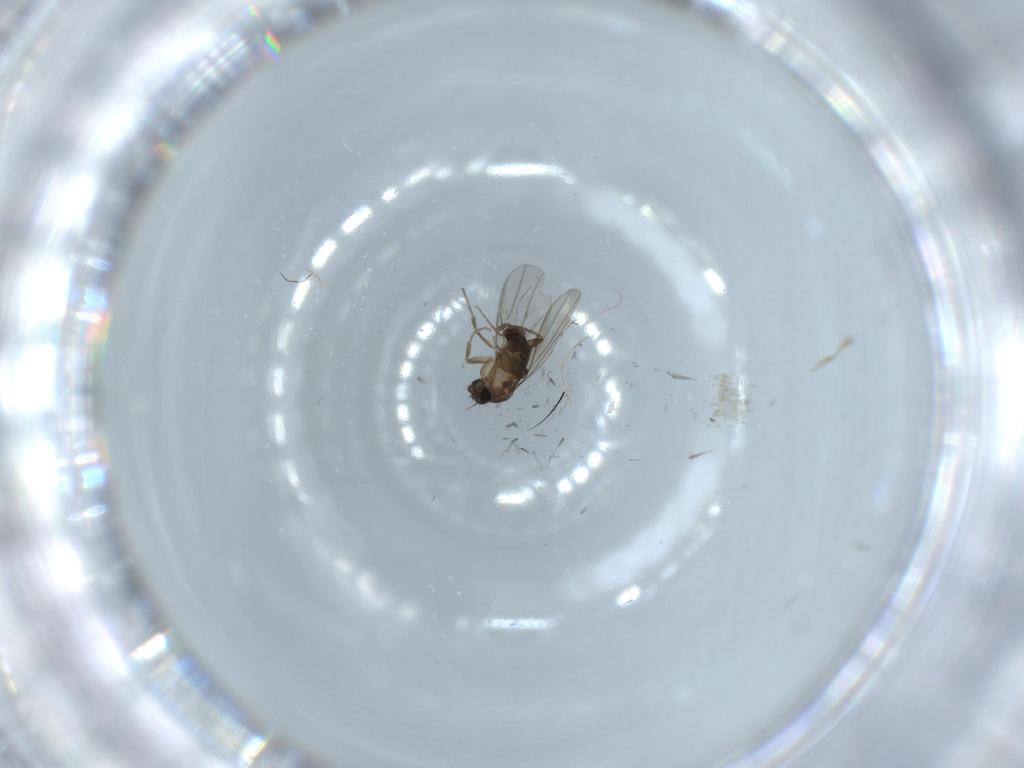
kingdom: Animalia
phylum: Arthropoda
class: Insecta
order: Diptera
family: Phoridae
